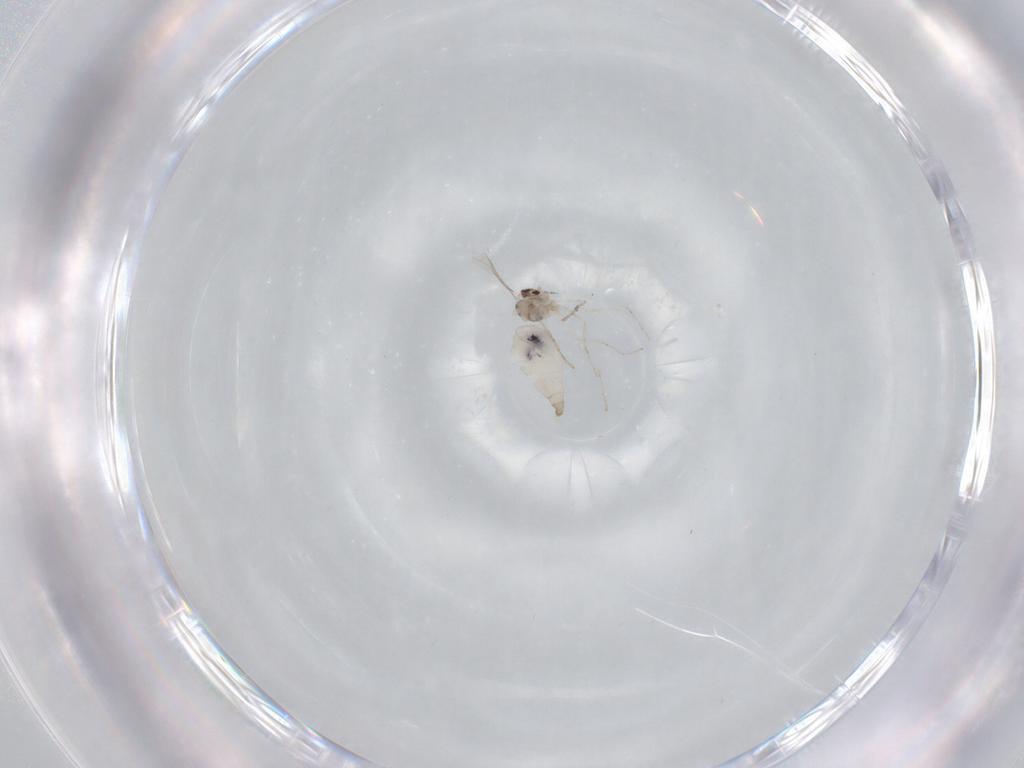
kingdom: Animalia
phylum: Arthropoda
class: Insecta
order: Diptera
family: Cecidomyiidae
